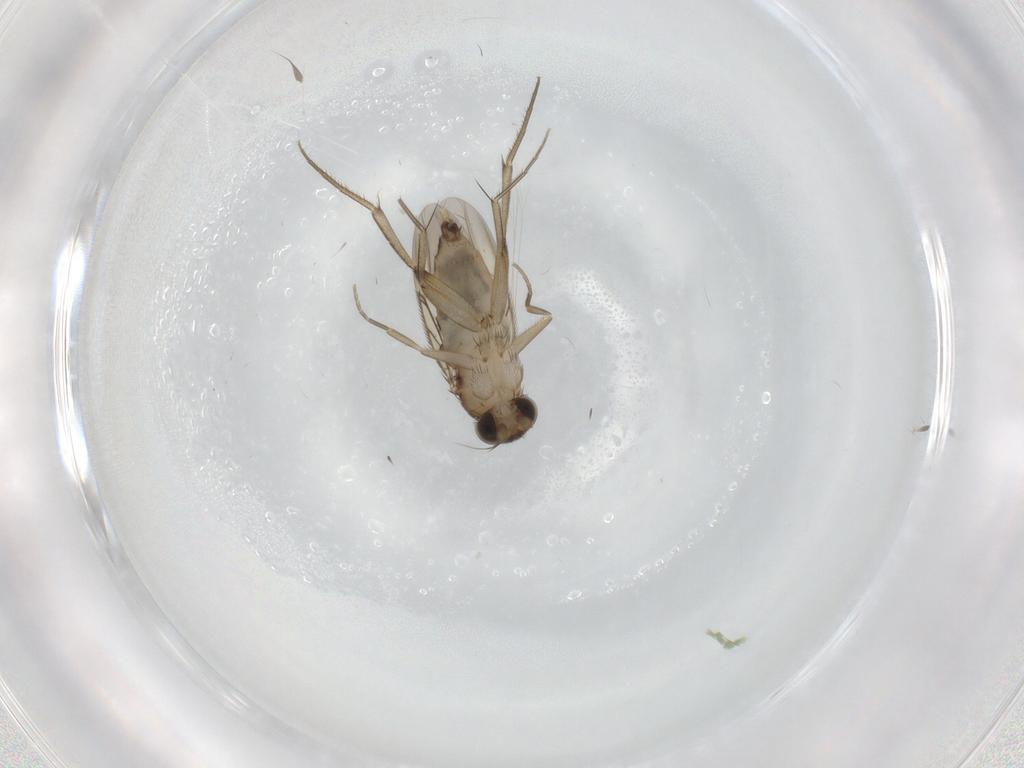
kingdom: Animalia
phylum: Arthropoda
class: Insecta
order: Diptera
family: Phoridae
